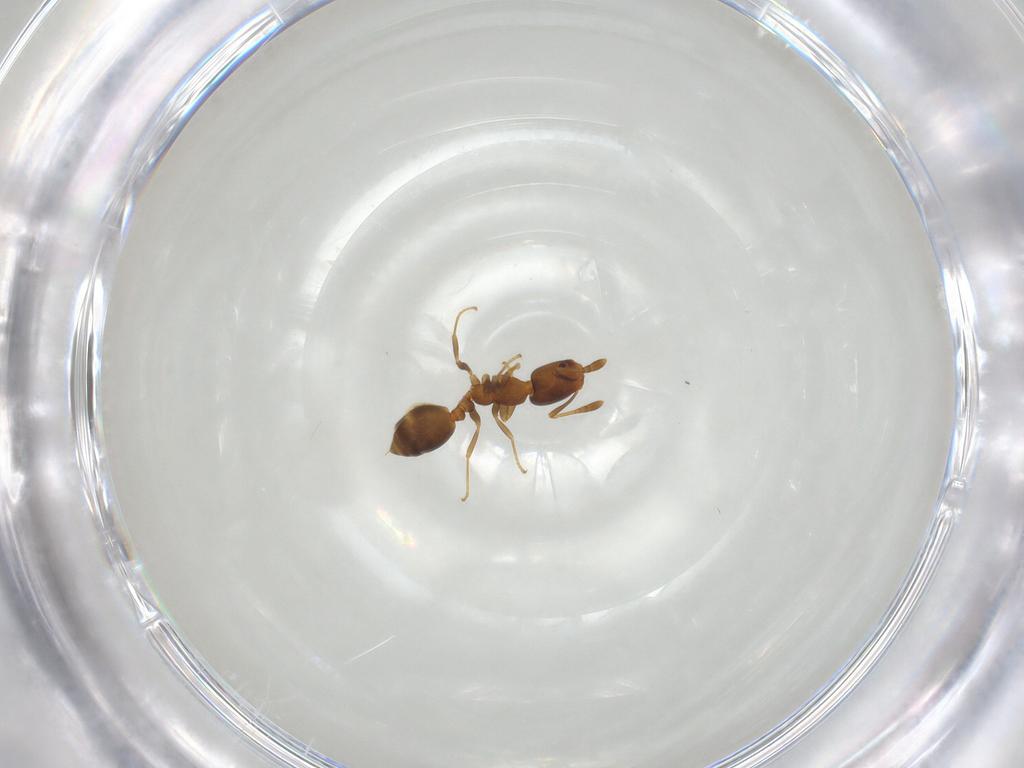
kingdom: Animalia
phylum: Arthropoda
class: Insecta
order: Hymenoptera
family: Formicidae
